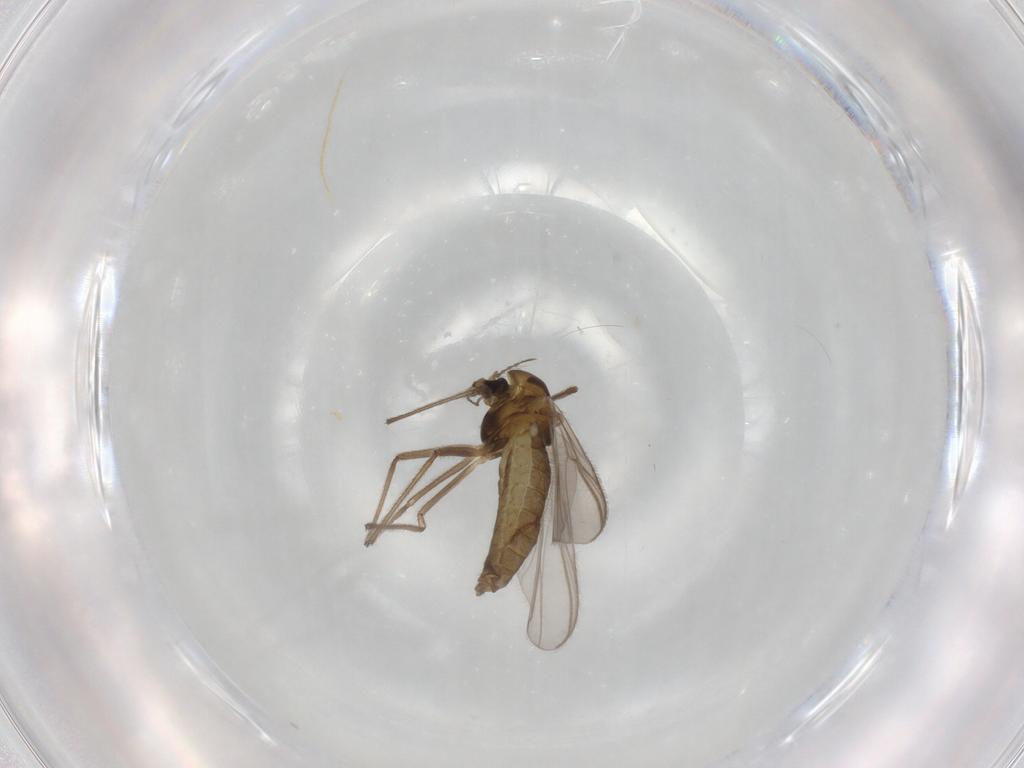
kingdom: Animalia
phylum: Arthropoda
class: Insecta
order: Diptera
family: Chironomidae
